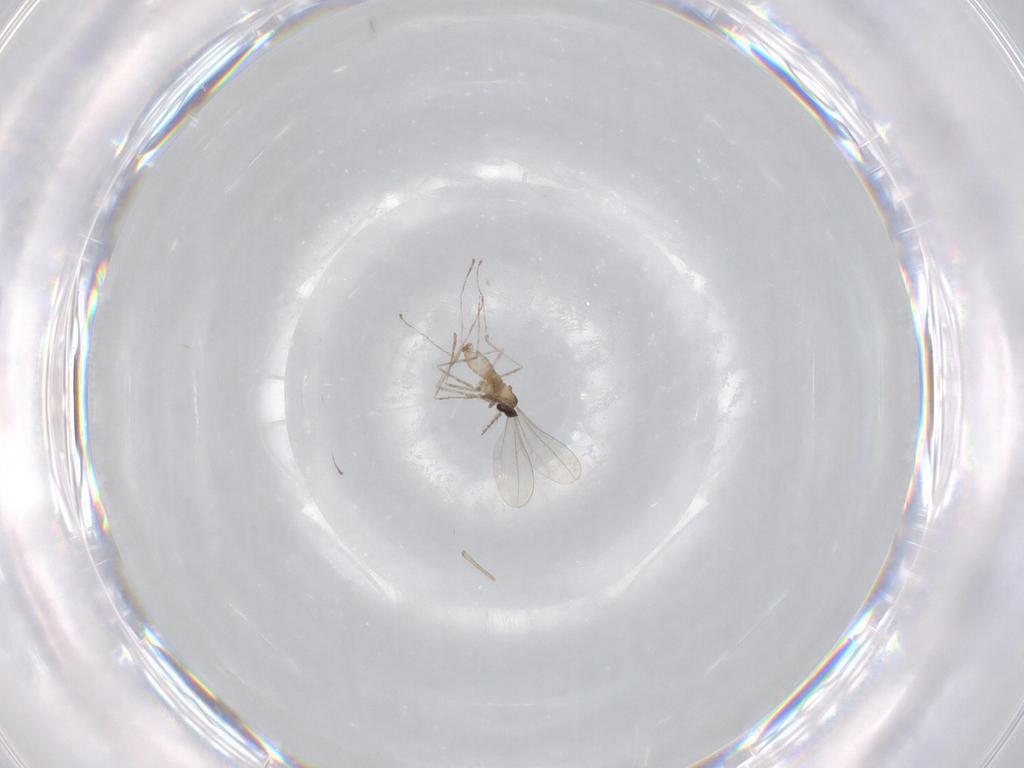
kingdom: Animalia
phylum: Arthropoda
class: Insecta
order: Diptera
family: Cecidomyiidae
